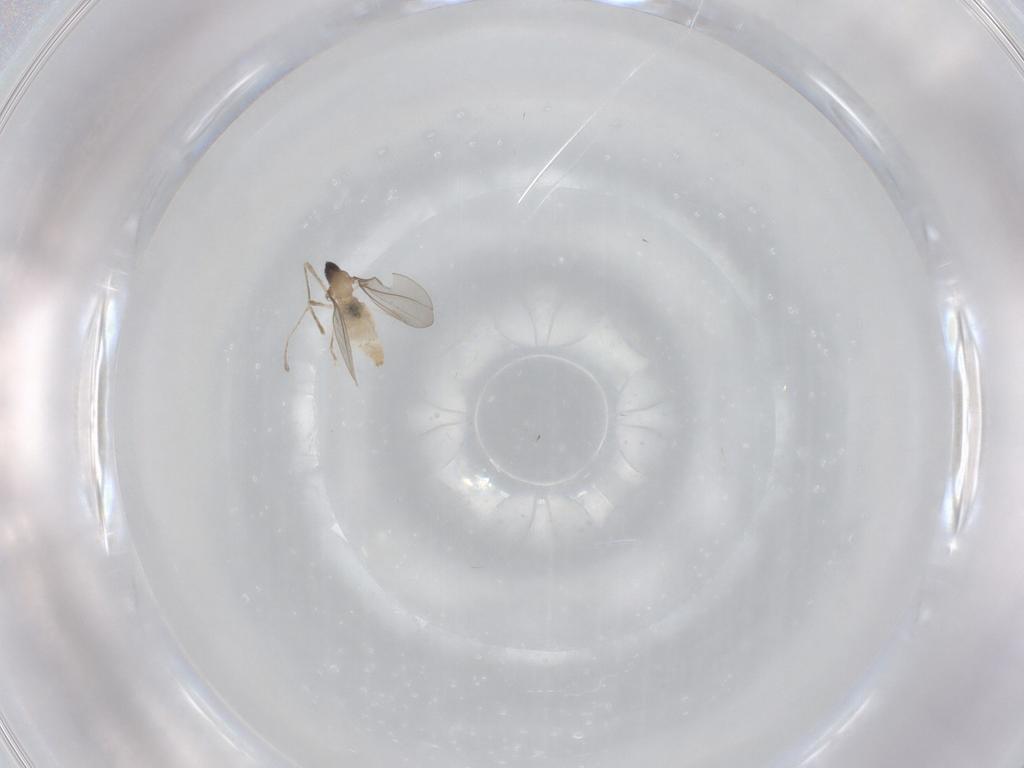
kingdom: Animalia
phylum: Arthropoda
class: Insecta
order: Diptera
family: Cecidomyiidae
